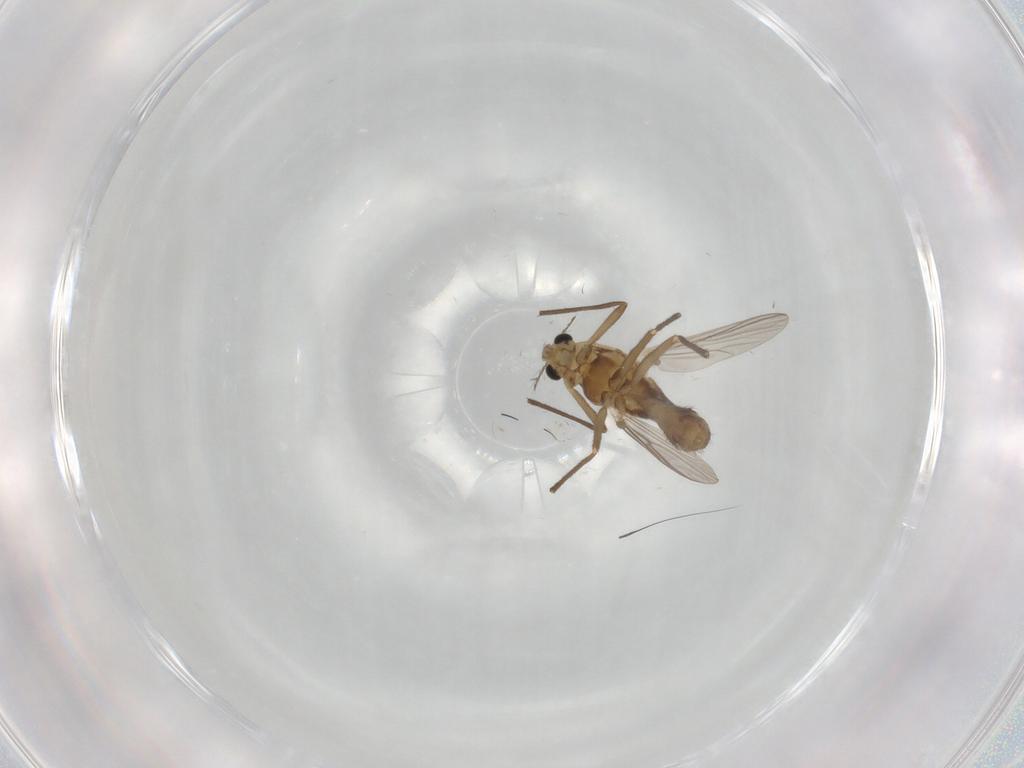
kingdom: Animalia
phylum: Arthropoda
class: Insecta
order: Diptera
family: Chironomidae
